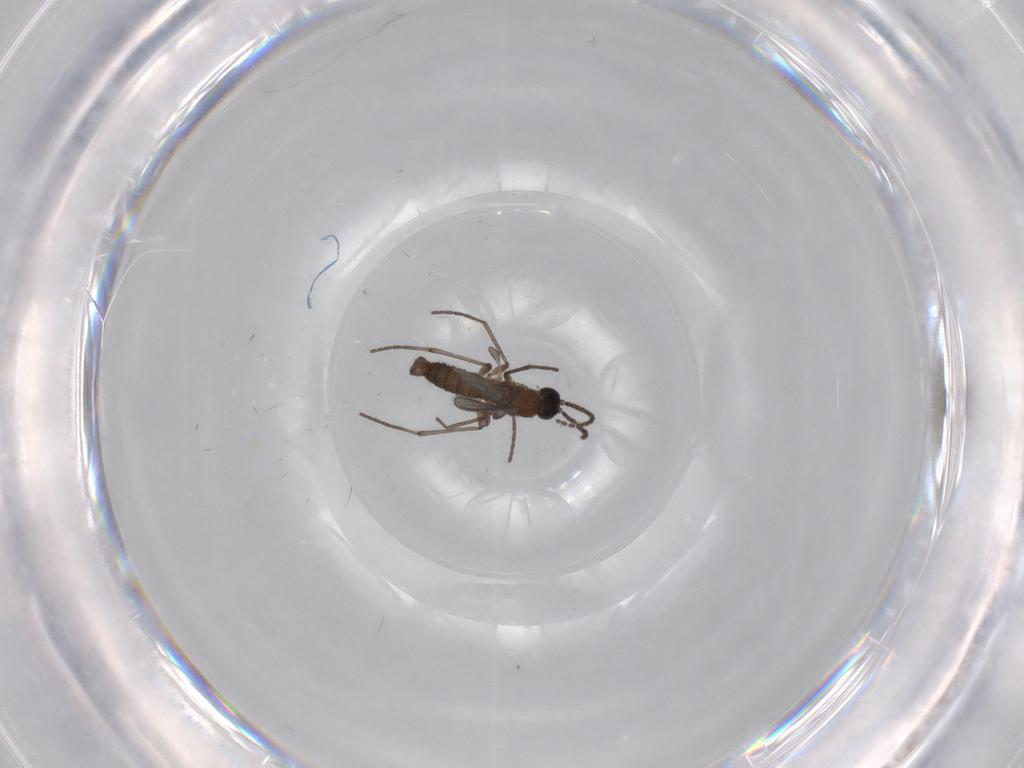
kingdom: Animalia
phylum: Arthropoda
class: Insecta
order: Diptera
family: Sciaridae
